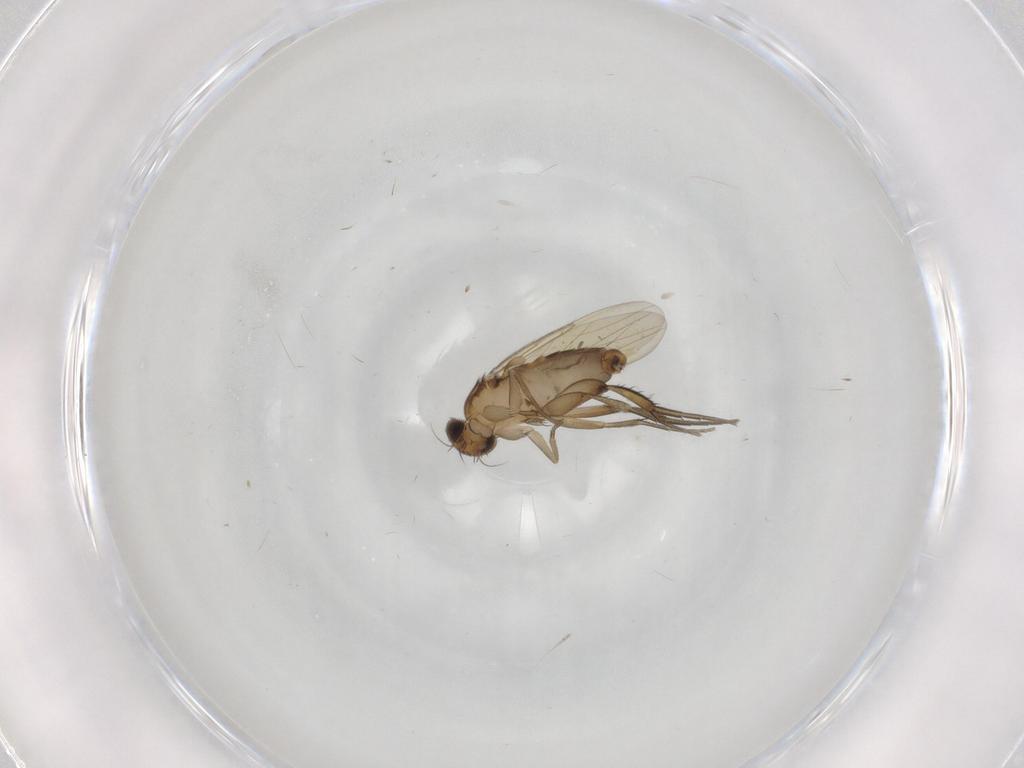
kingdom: Animalia
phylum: Arthropoda
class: Insecta
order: Diptera
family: Phoridae
